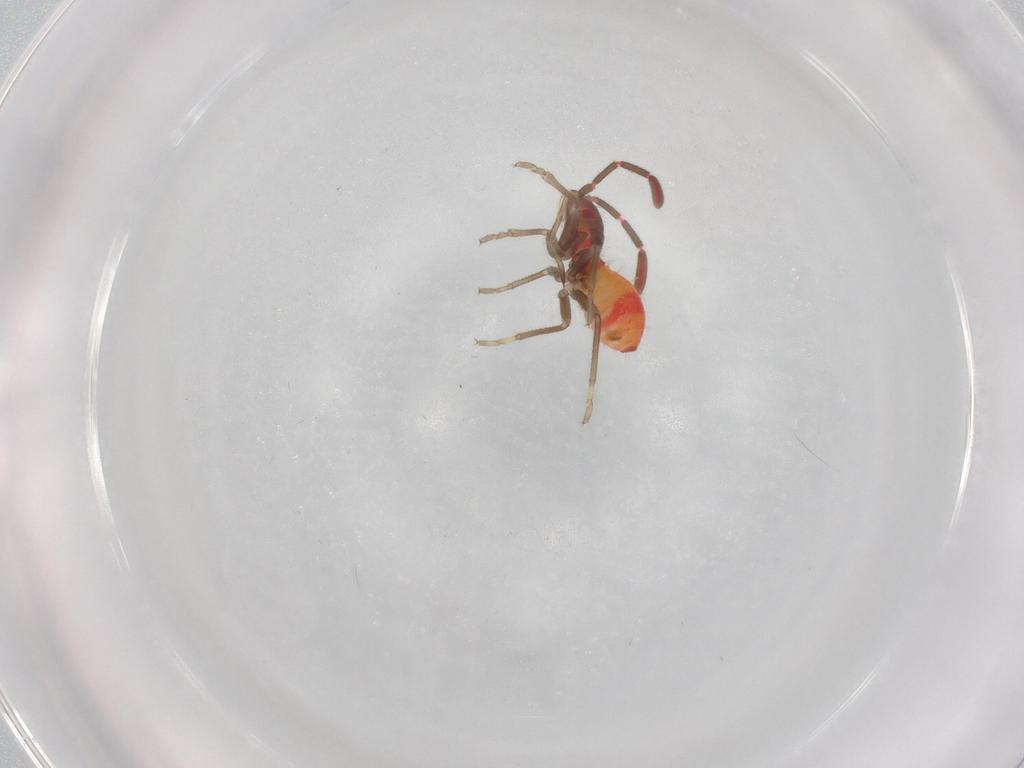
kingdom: Animalia
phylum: Arthropoda
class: Insecta
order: Hemiptera
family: Rhyparochromidae
